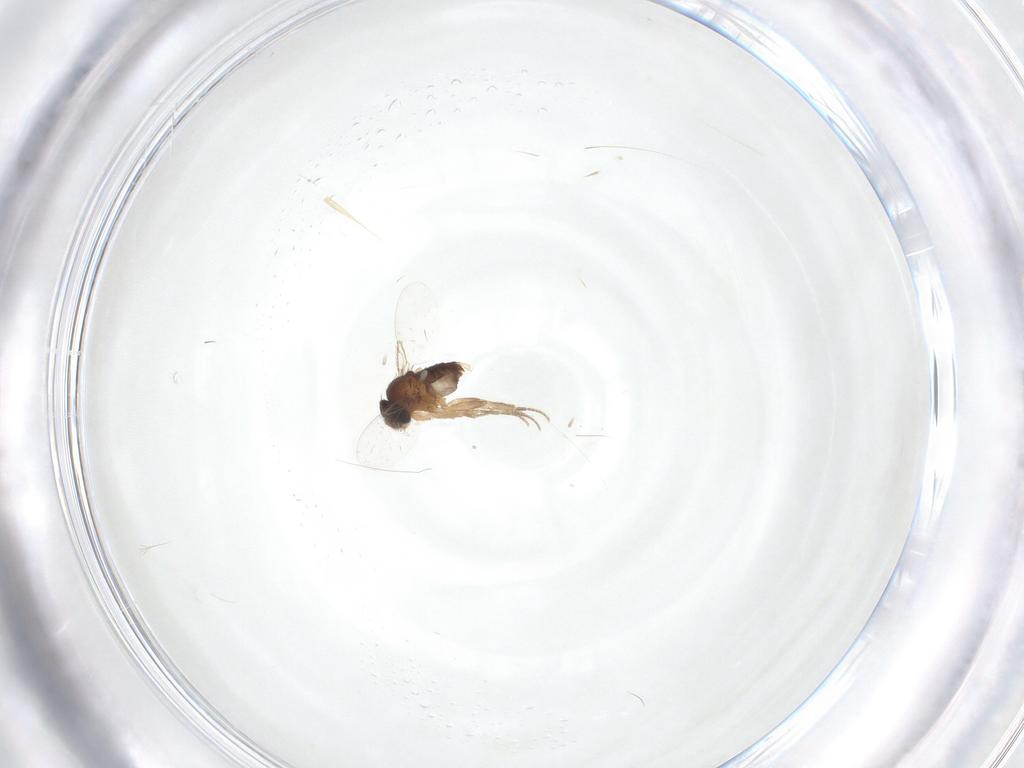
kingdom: Animalia
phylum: Arthropoda
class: Insecta
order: Diptera
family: Phoridae
